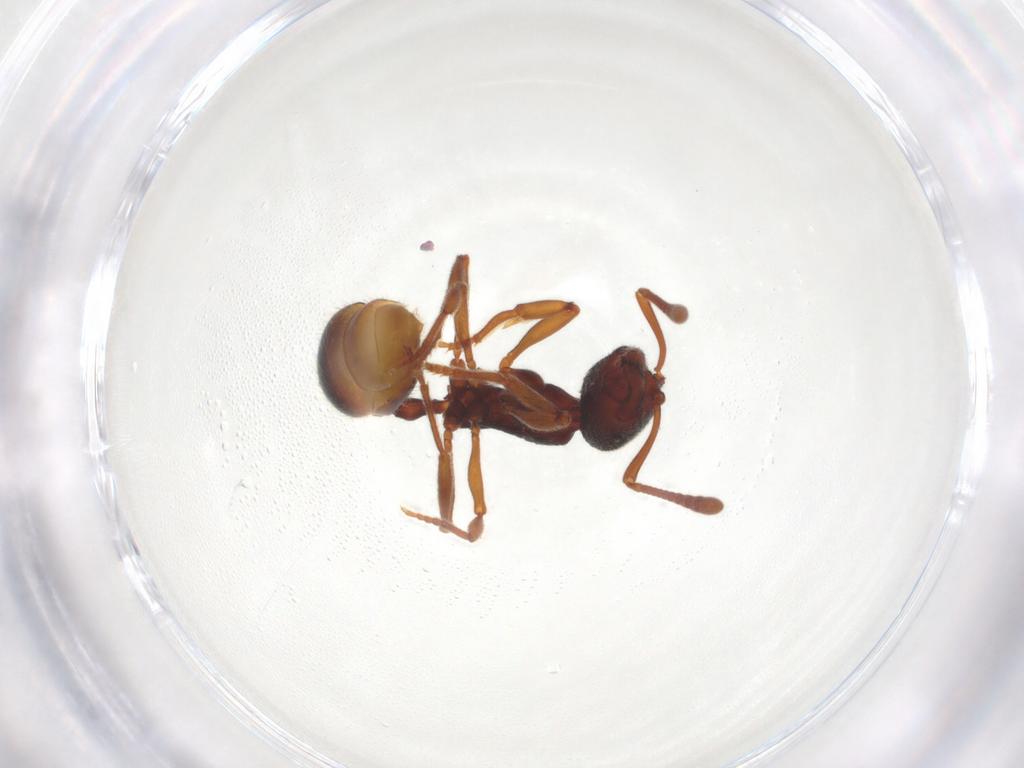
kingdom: Animalia
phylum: Arthropoda
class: Insecta
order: Hymenoptera
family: Formicidae
